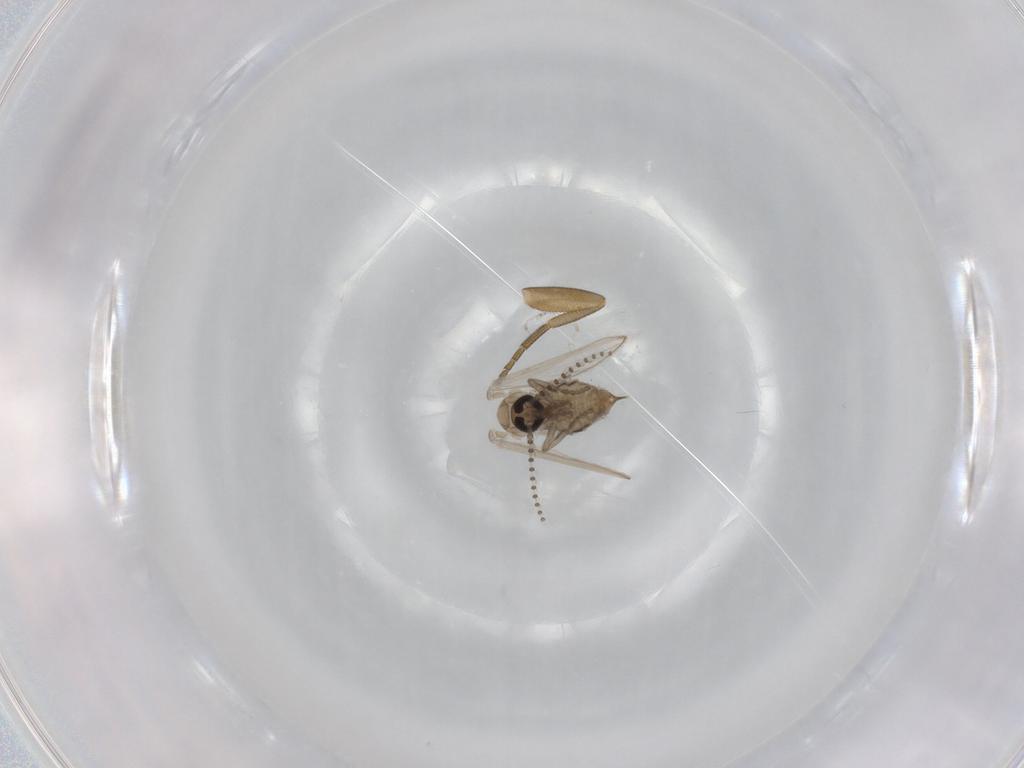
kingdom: Animalia
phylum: Arthropoda
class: Insecta
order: Diptera
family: Psychodidae
